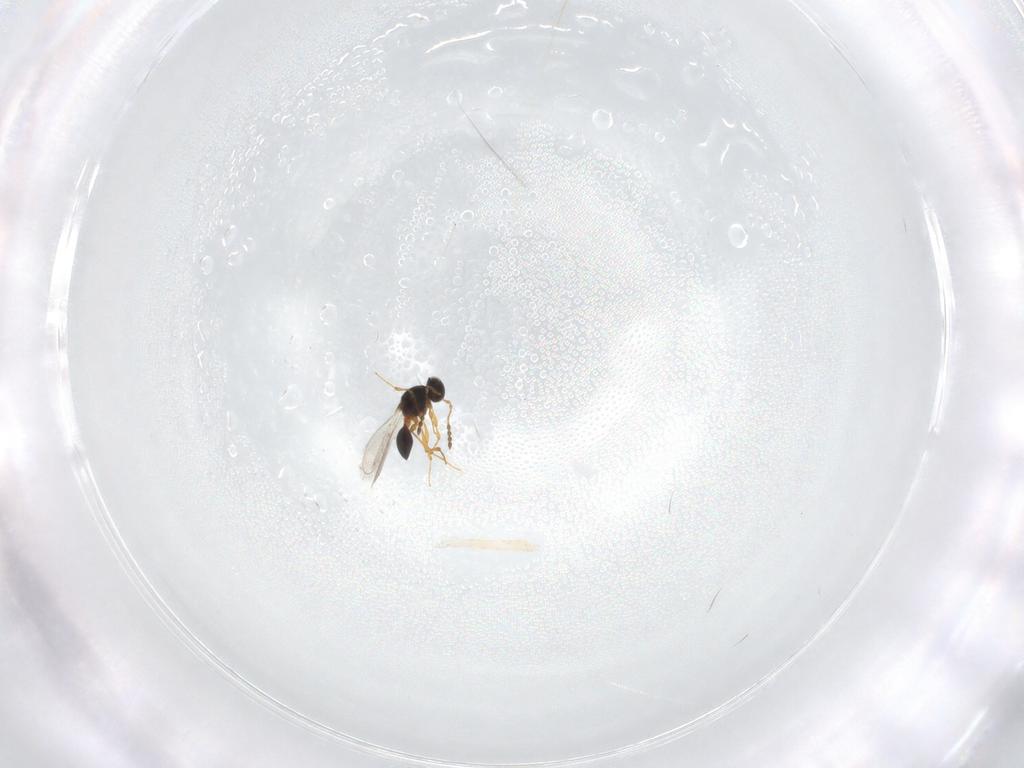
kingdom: Animalia
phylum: Arthropoda
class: Insecta
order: Hymenoptera
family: Platygastridae
